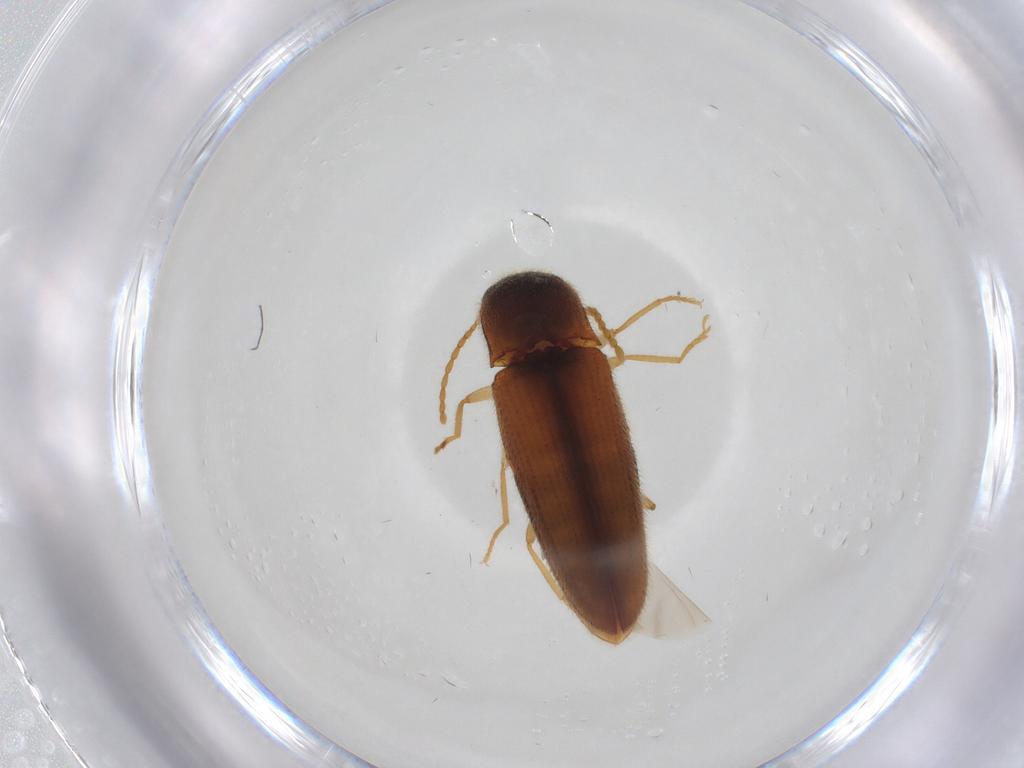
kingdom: Animalia
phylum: Arthropoda
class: Insecta
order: Coleoptera
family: Elateridae
